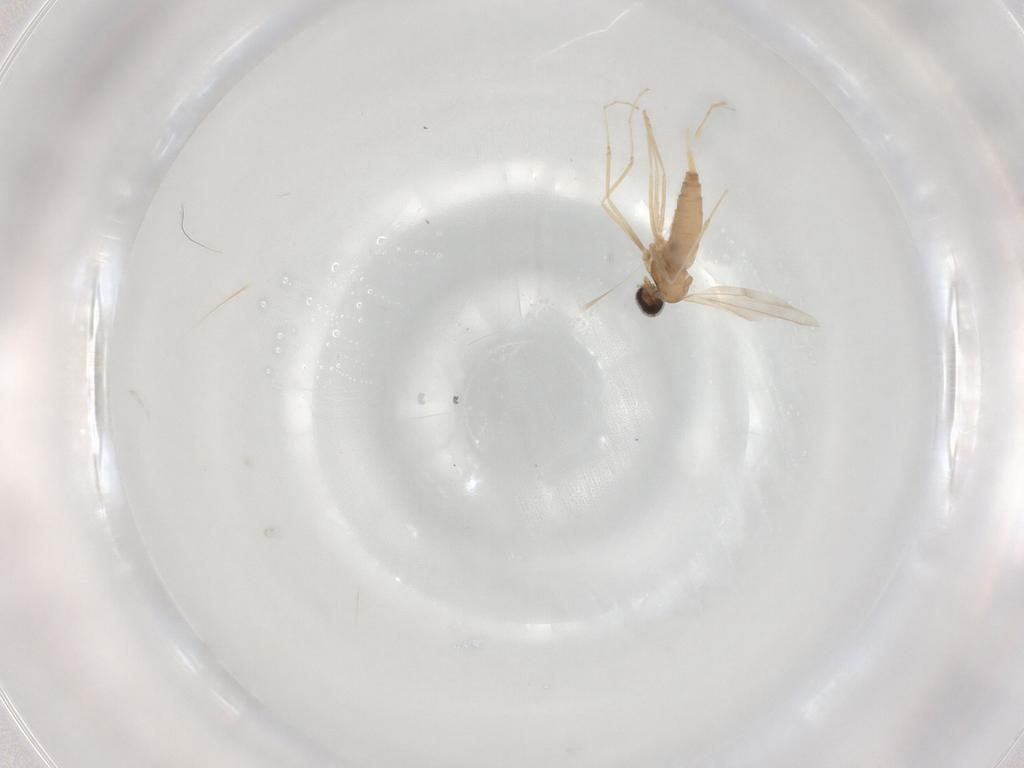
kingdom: Animalia
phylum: Arthropoda
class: Insecta
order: Diptera
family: Cecidomyiidae
